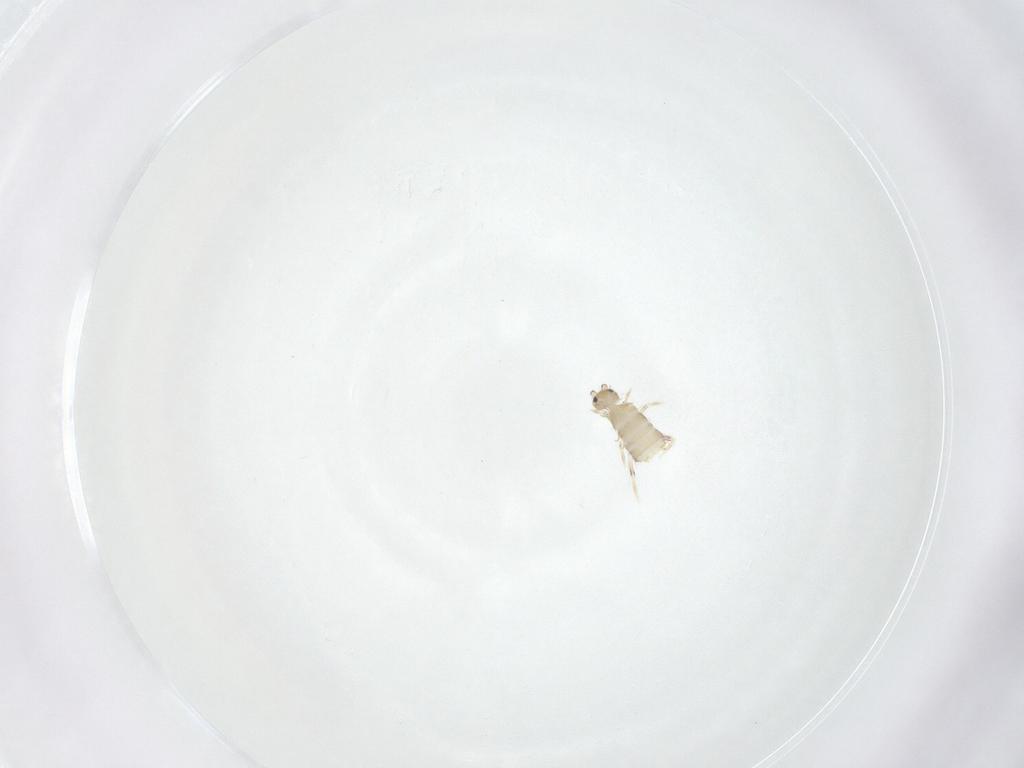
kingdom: Animalia
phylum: Arthropoda
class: Collembola
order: Entomobryomorpha
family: Entomobryidae
